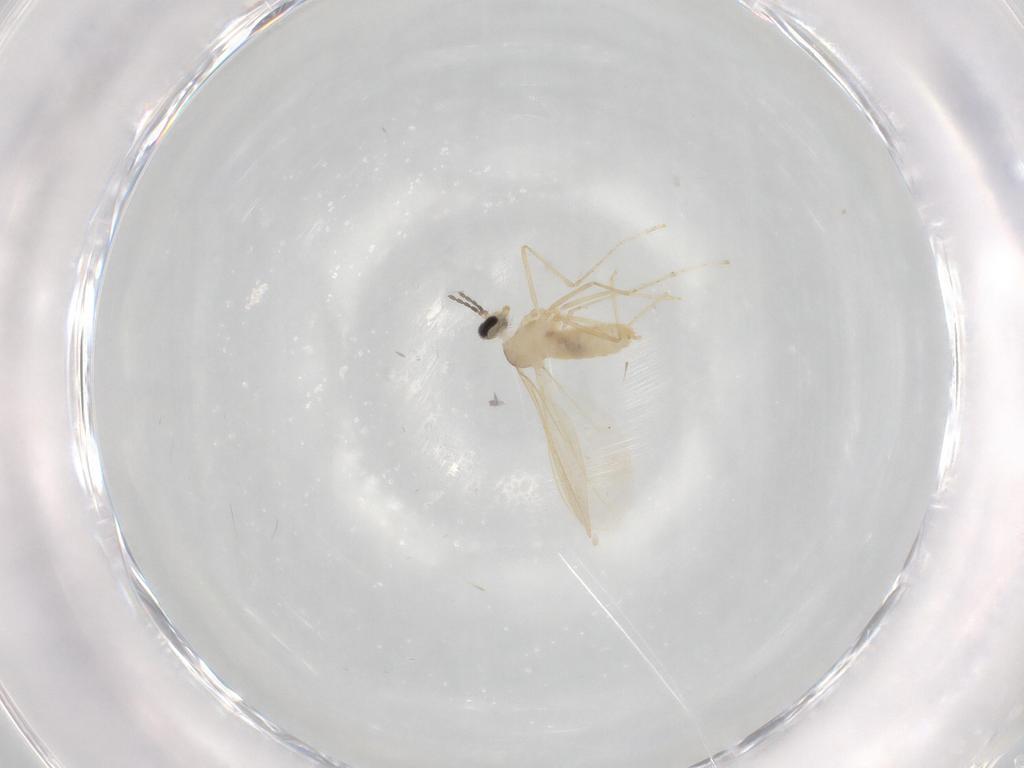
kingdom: Animalia
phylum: Arthropoda
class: Insecta
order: Diptera
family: Cecidomyiidae
